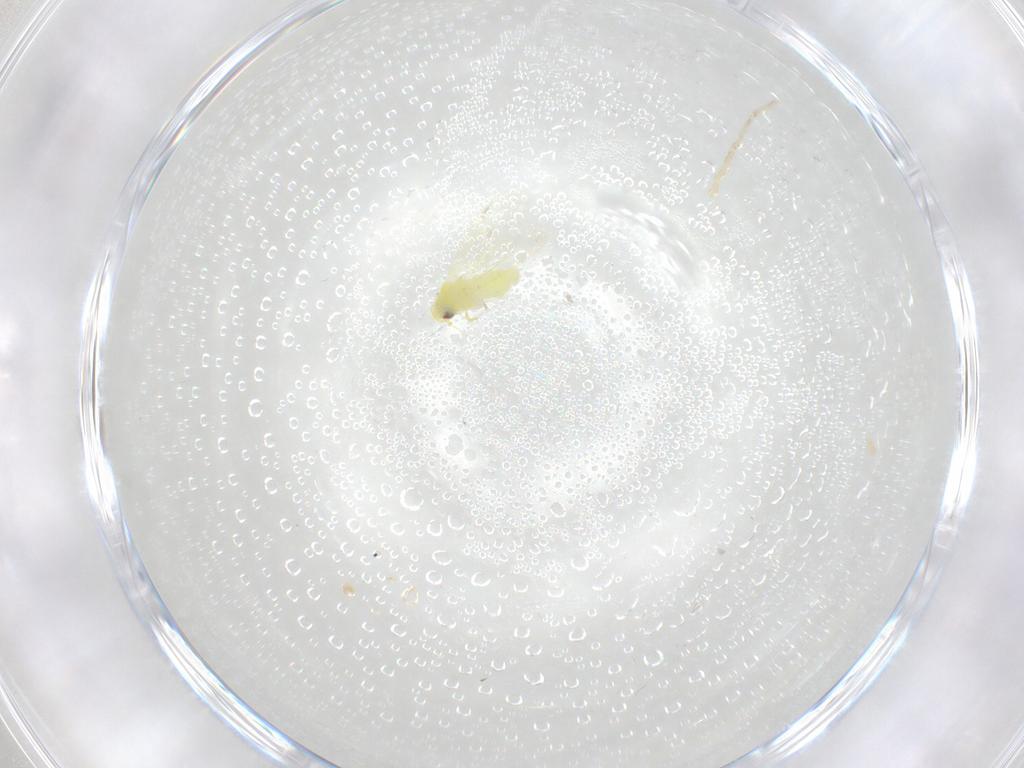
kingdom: Animalia
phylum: Arthropoda
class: Insecta
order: Hemiptera
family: Aleyrodidae
